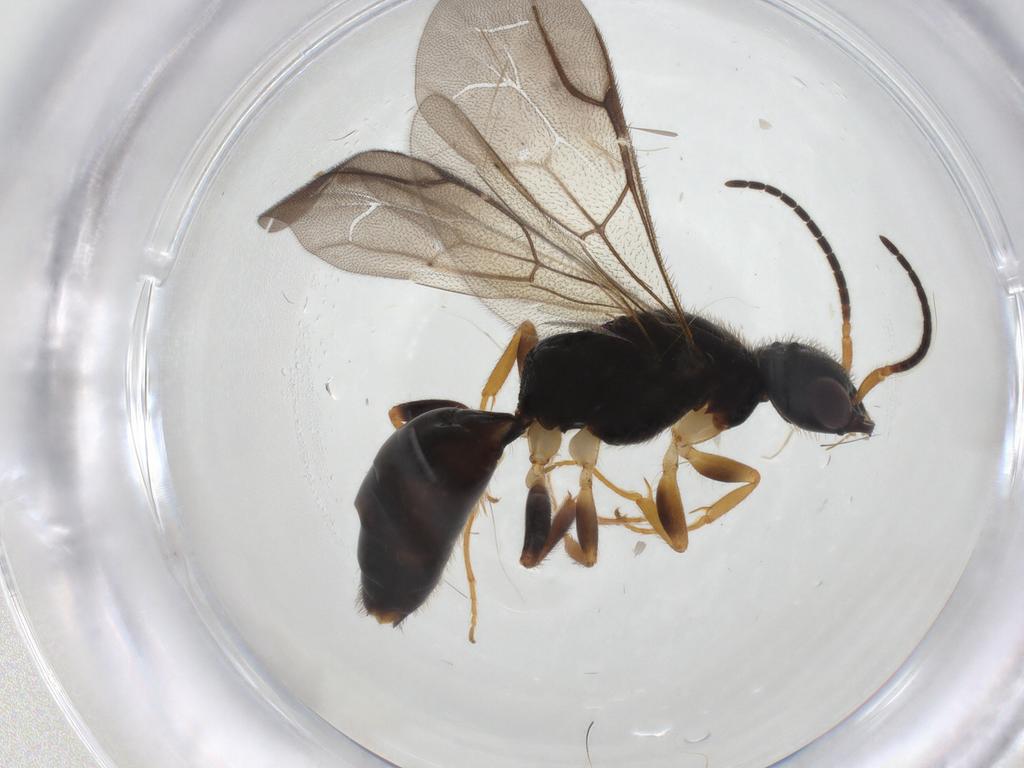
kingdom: Animalia
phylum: Arthropoda
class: Insecta
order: Hymenoptera
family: Bethylidae
